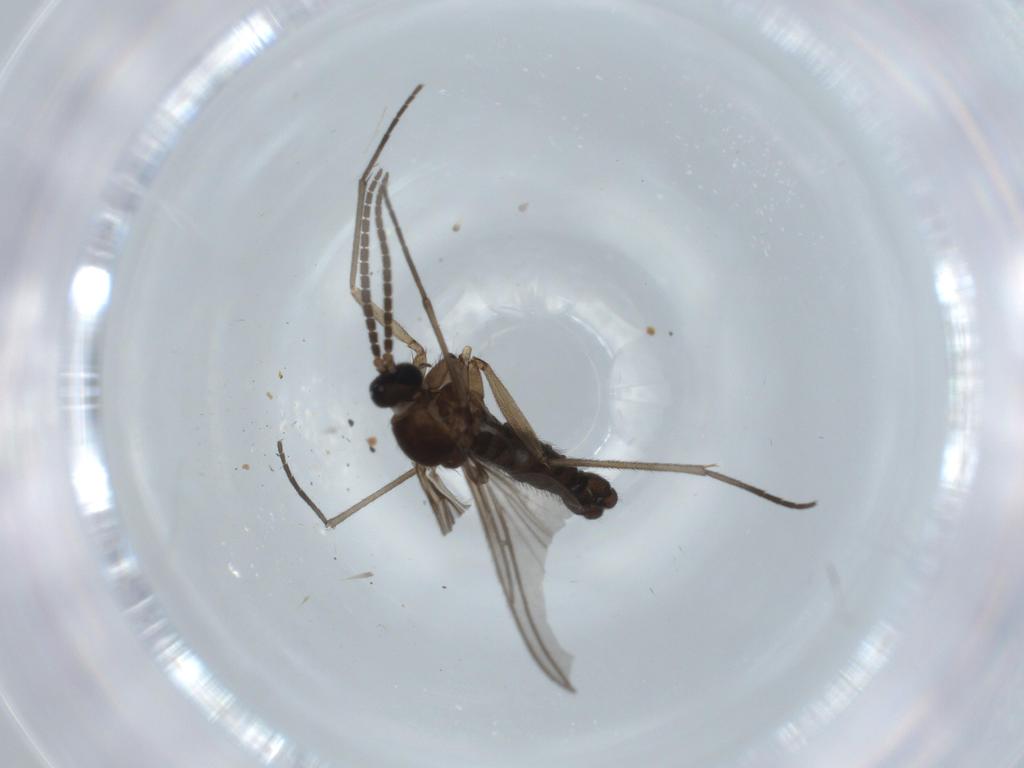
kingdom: Animalia
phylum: Arthropoda
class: Insecta
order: Diptera
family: Sciaridae
